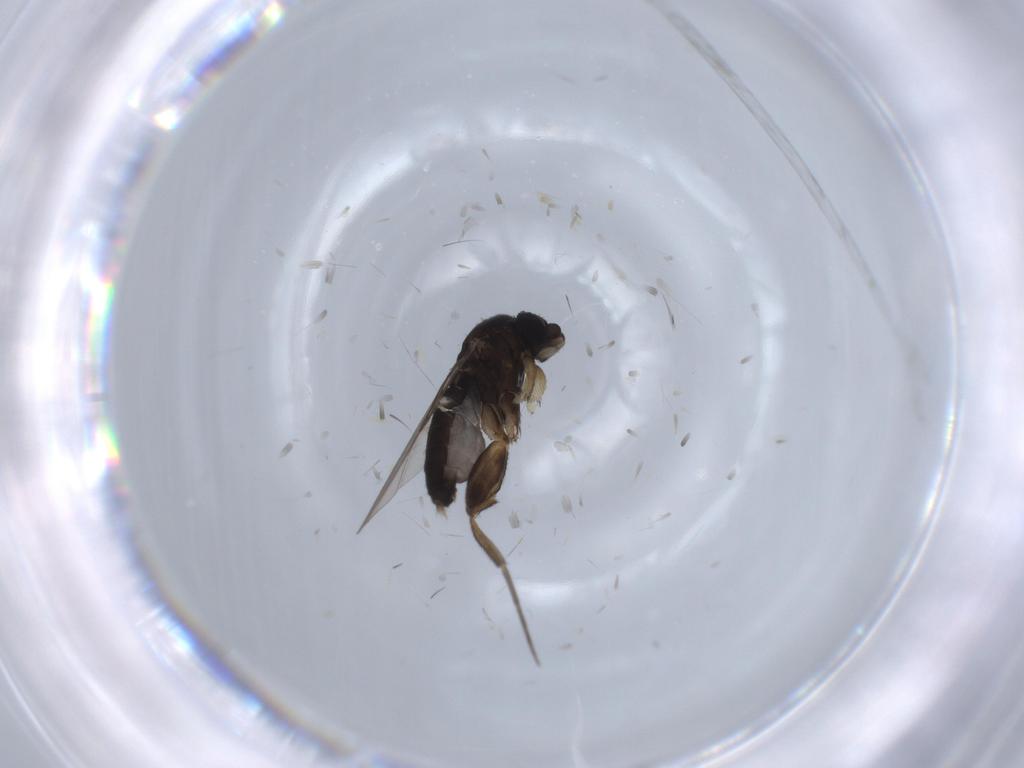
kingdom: Animalia
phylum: Arthropoda
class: Insecta
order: Diptera
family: Phoridae
